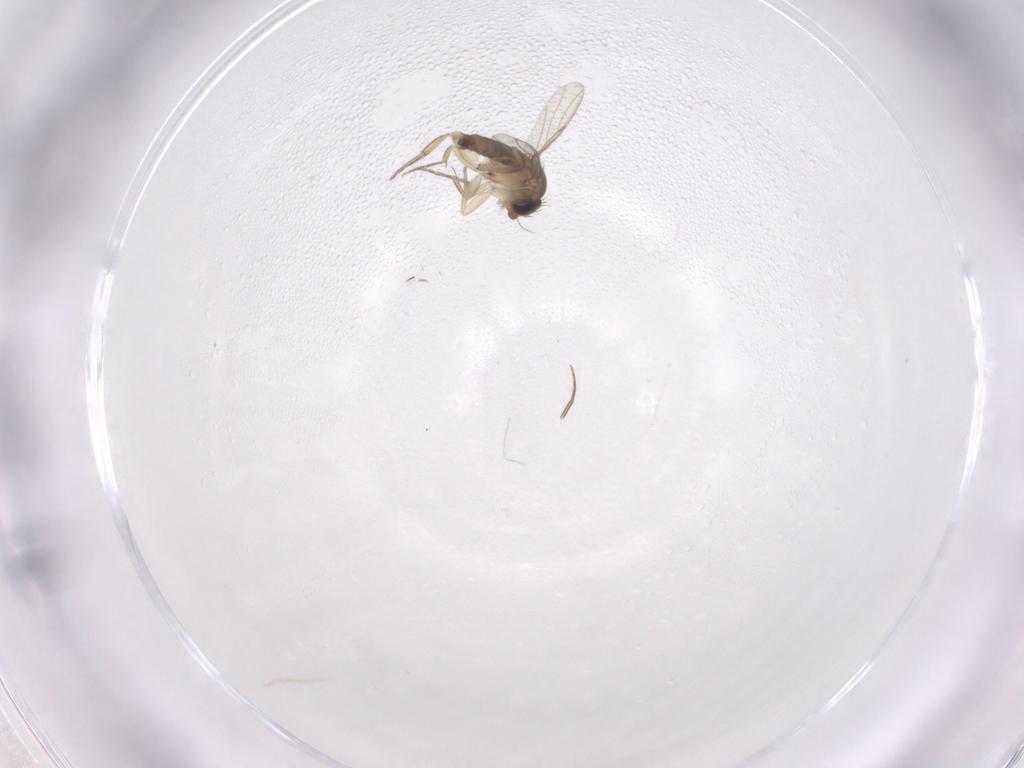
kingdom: Animalia
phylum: Arthropoda
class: Insecta
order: Diptera
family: Phoridae
